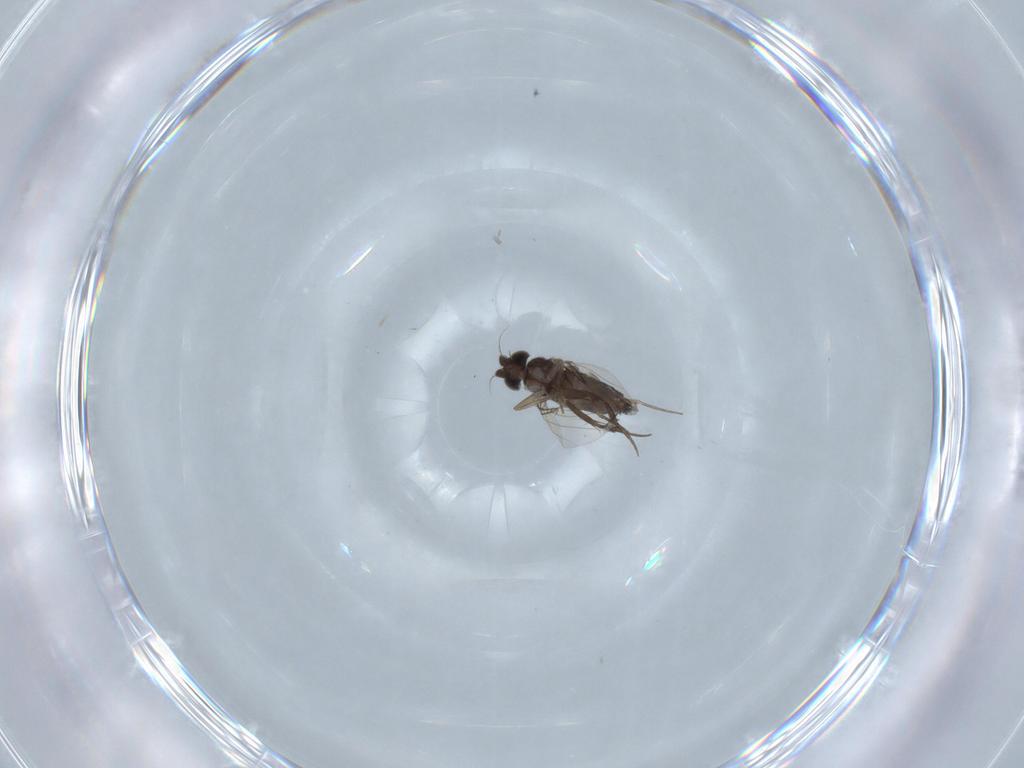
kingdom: Animalia
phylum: Arthropoda
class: Insecta
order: Diptera
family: Phoridae
